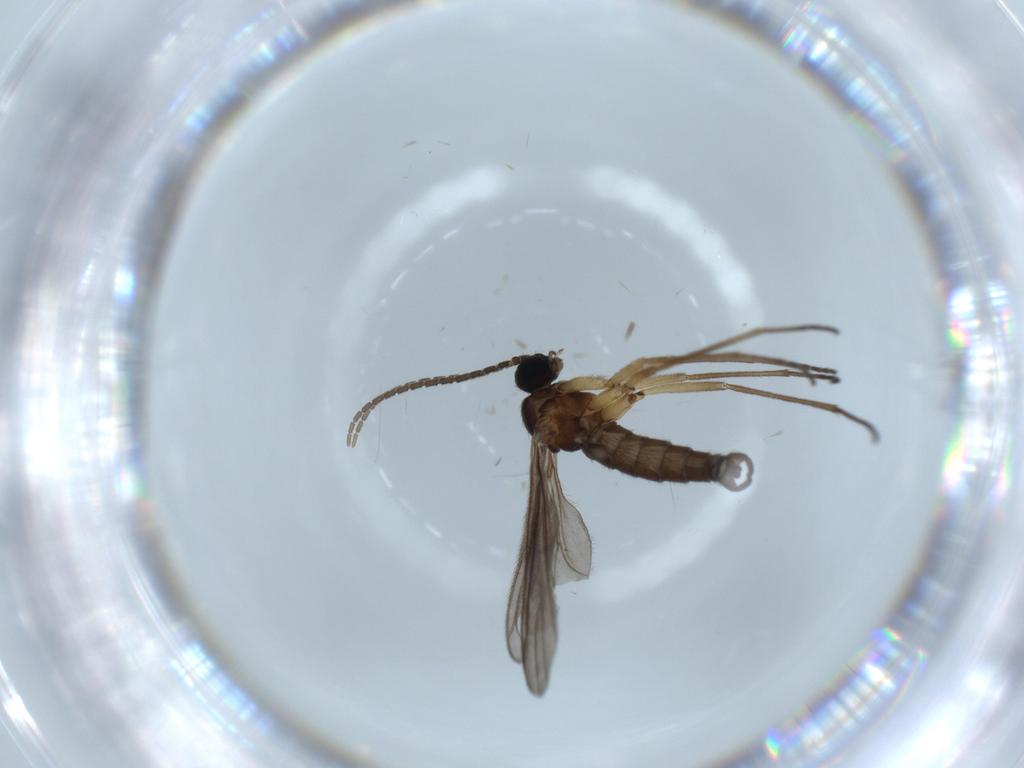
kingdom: Animalia
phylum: Arthropoda
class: Insecta
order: Diptera
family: Sciaridae
